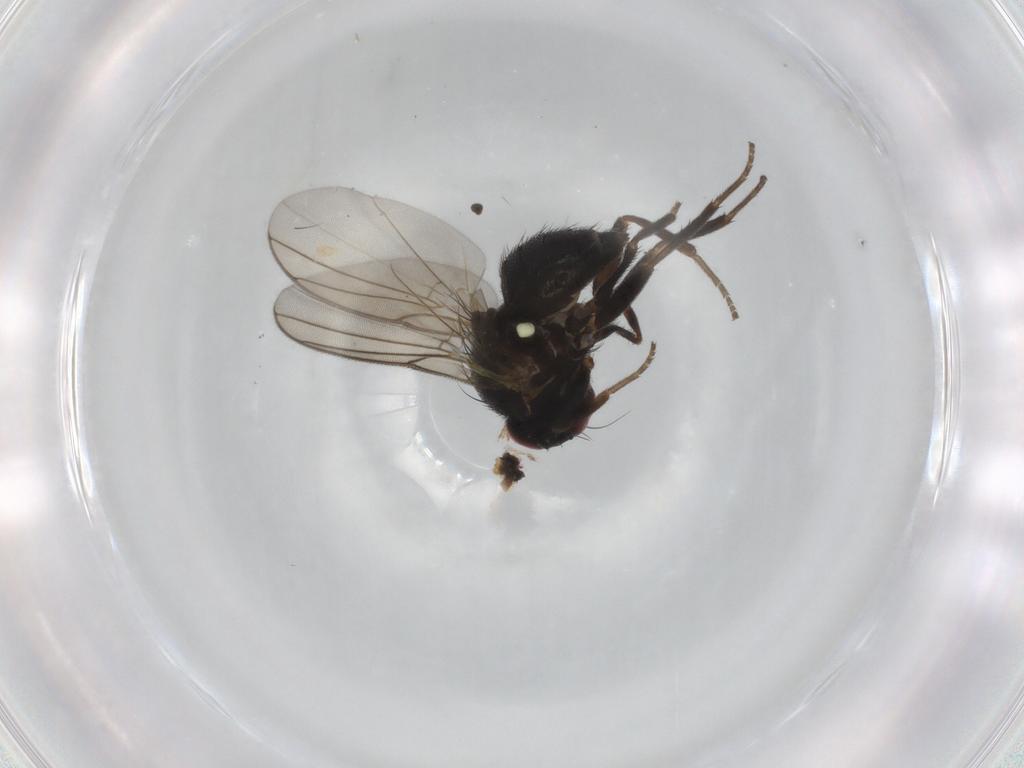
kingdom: Animalia
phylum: Arthropoda
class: Insecta
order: Diptera
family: Agromyzidae
